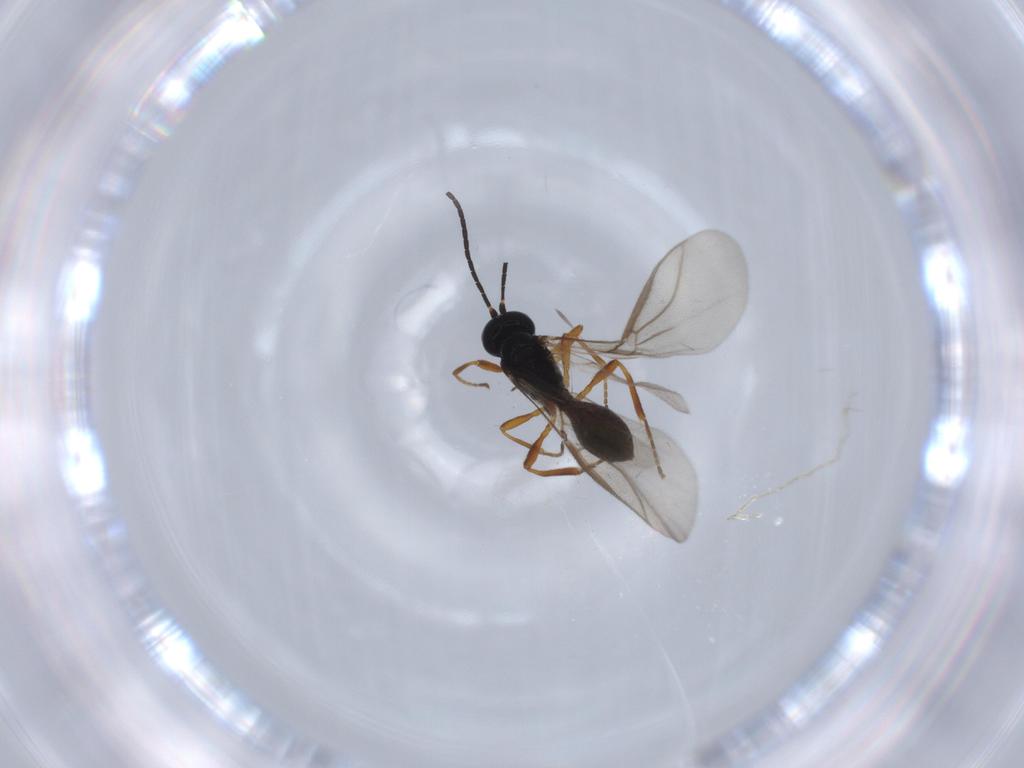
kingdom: Animalia
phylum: Arthropoda
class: Insecta
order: Hymenoptera
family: Braconidae
